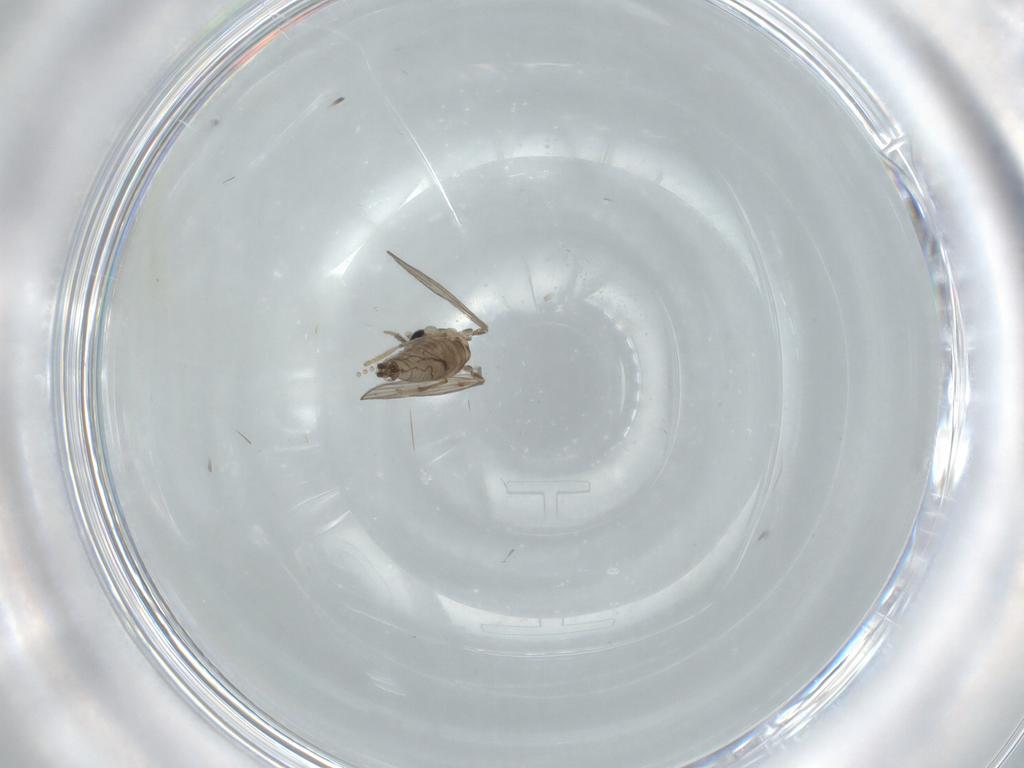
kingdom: Animalia
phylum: Arthropoda
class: Insecta
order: Diptera
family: Psychodidae
